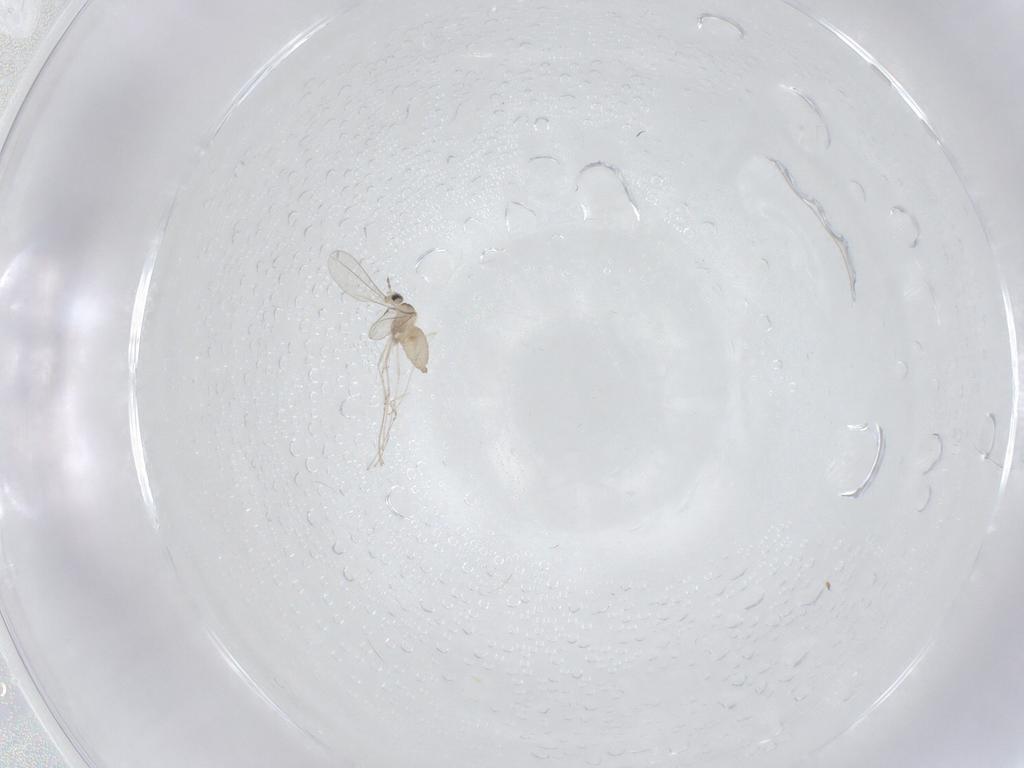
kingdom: Animalia
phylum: Arthropoda
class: Insecta
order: Diptera
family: Cecidomyiidae
